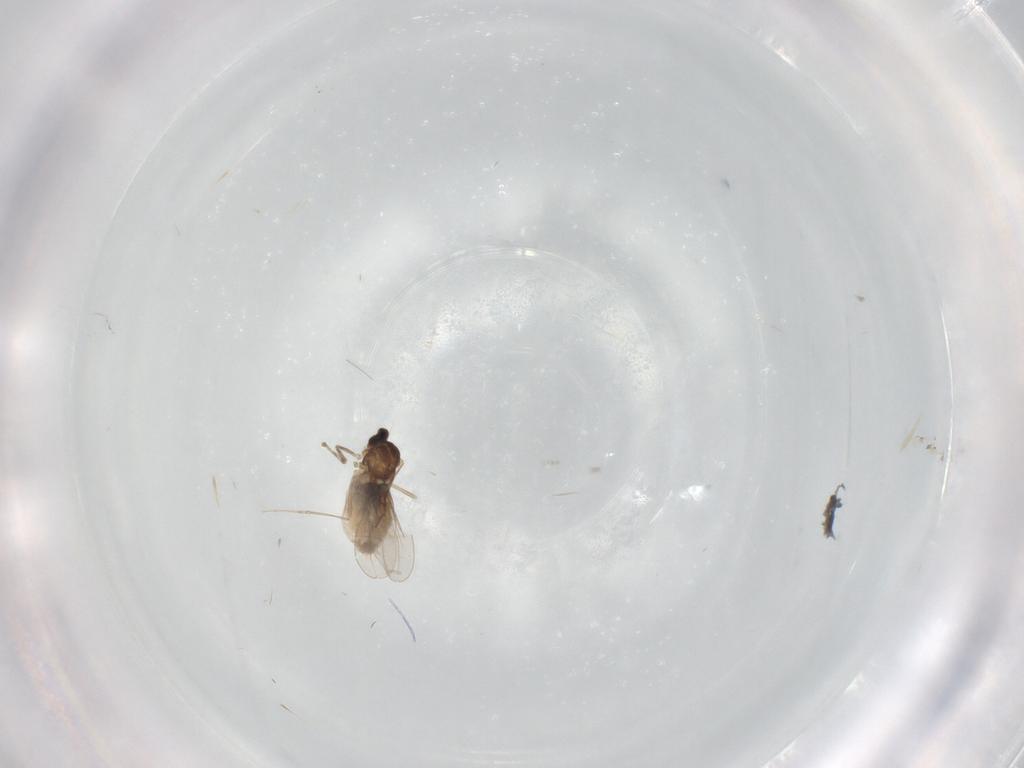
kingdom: Animalia
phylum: Arthropoda
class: Insecta
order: Diptera
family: Cecidomyiidae
